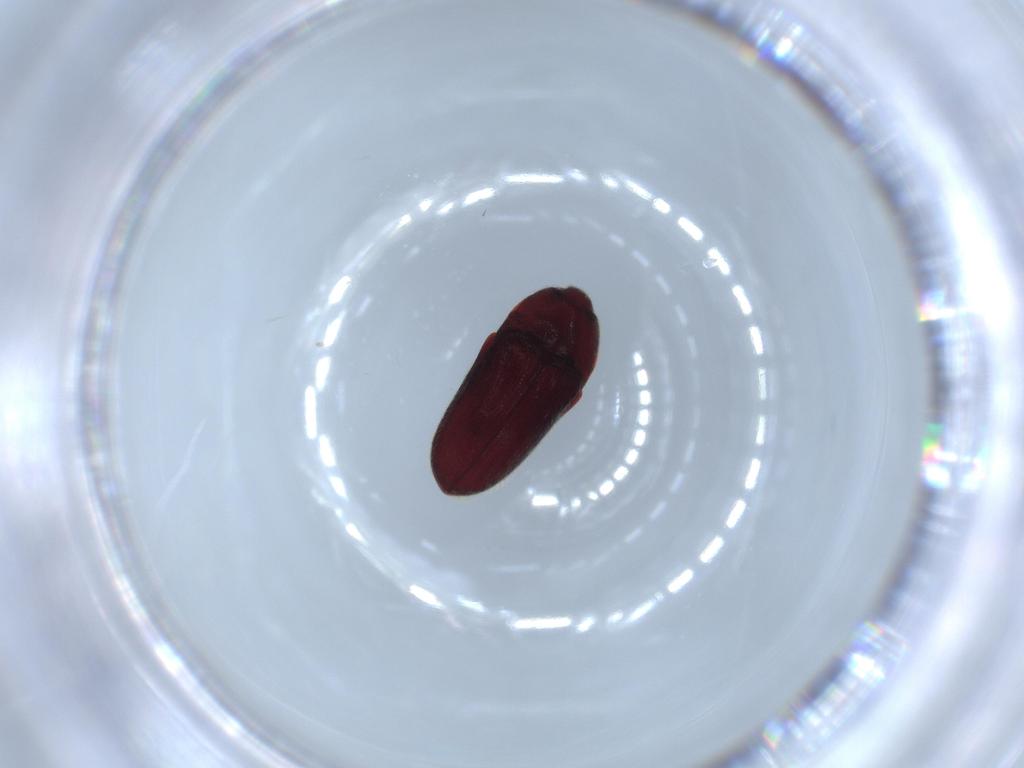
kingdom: Animalia
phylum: Arthropoda
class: Insecta
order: Coleoptera
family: Throscidae
